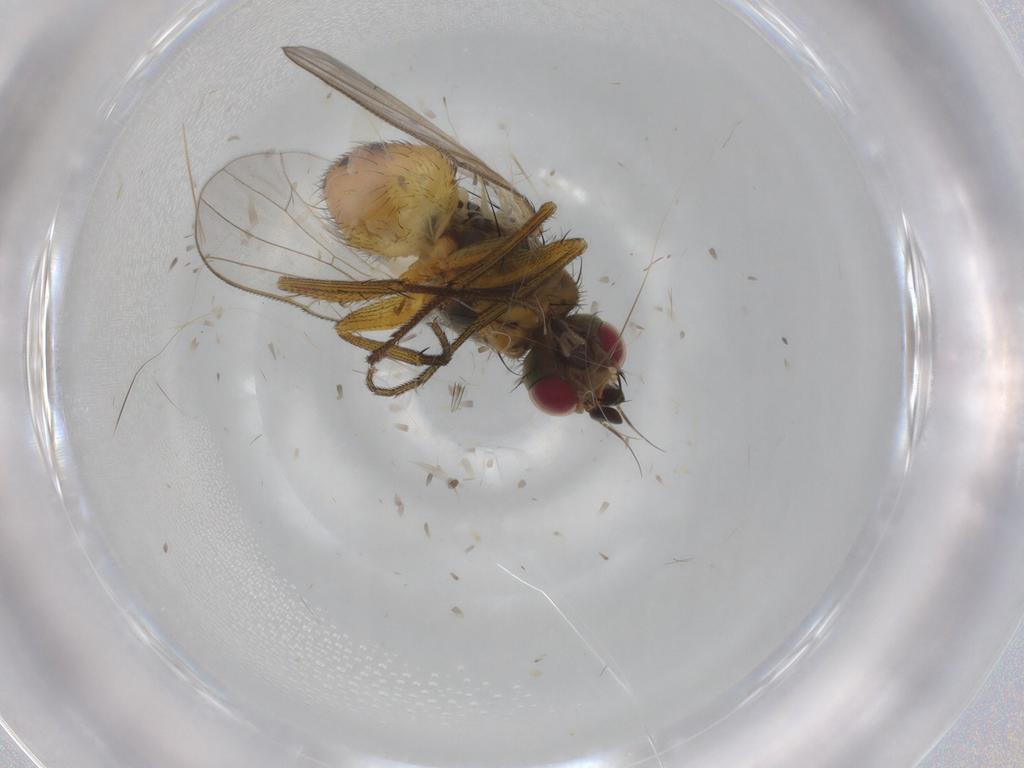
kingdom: Animalia
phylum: Arthropoda
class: Insecta
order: Diptera
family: Muscidae
